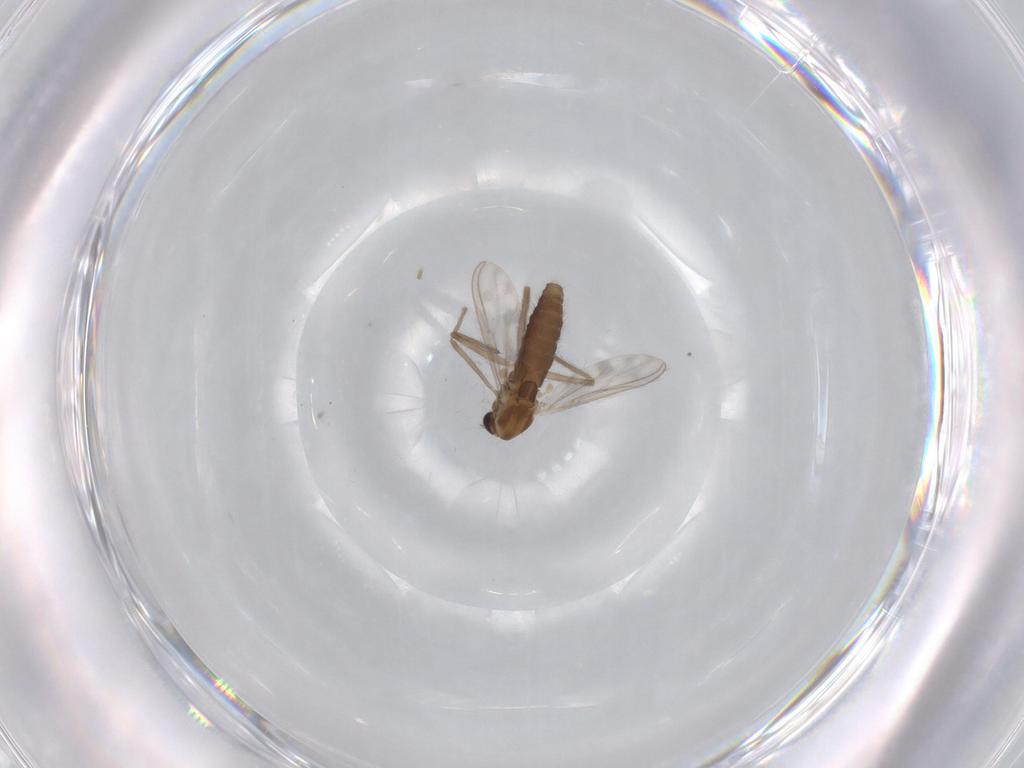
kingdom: Animalia
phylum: Arthropoda
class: Insecta
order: Diptera
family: Chironomidae
